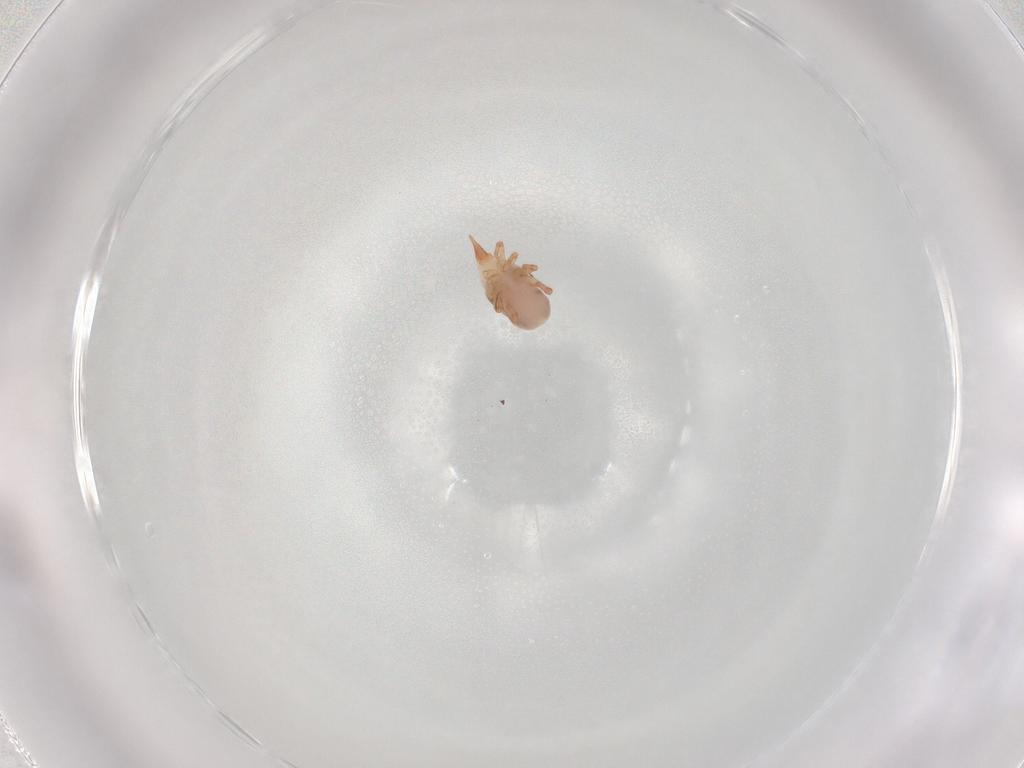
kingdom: Animalia
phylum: Arthropoda
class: Arachnida
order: Trombidiformes
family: Bdellidae
